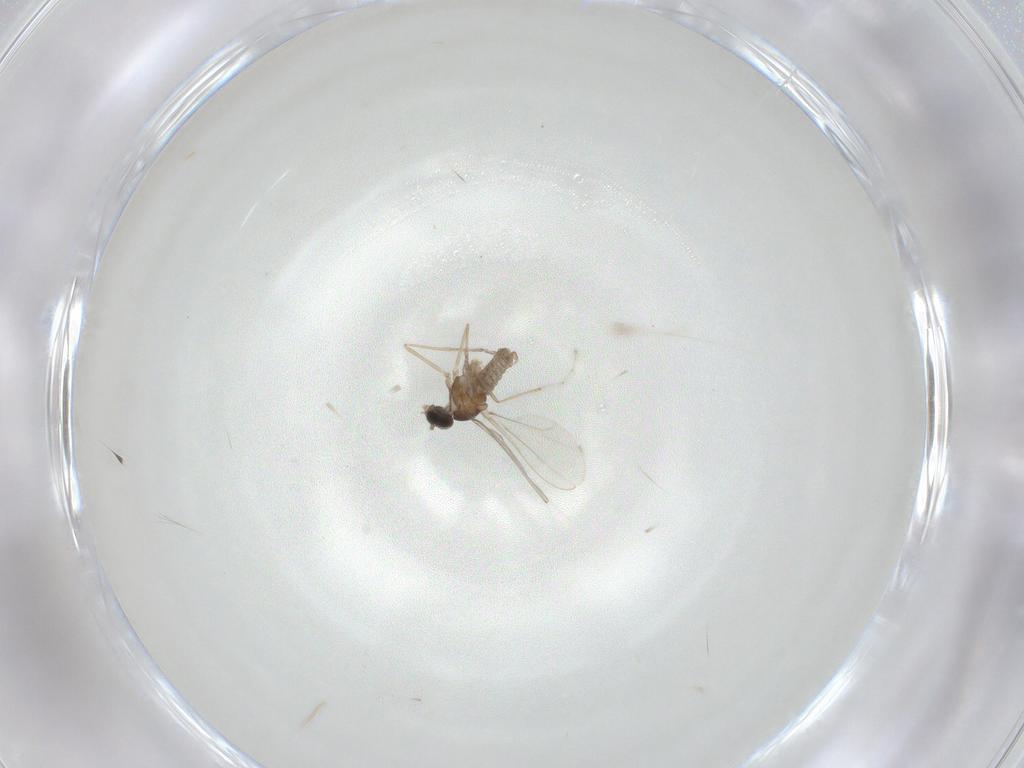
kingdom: Animalia
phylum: Arthropoda
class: Insecta
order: Diptera
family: Cecidomyiidae
